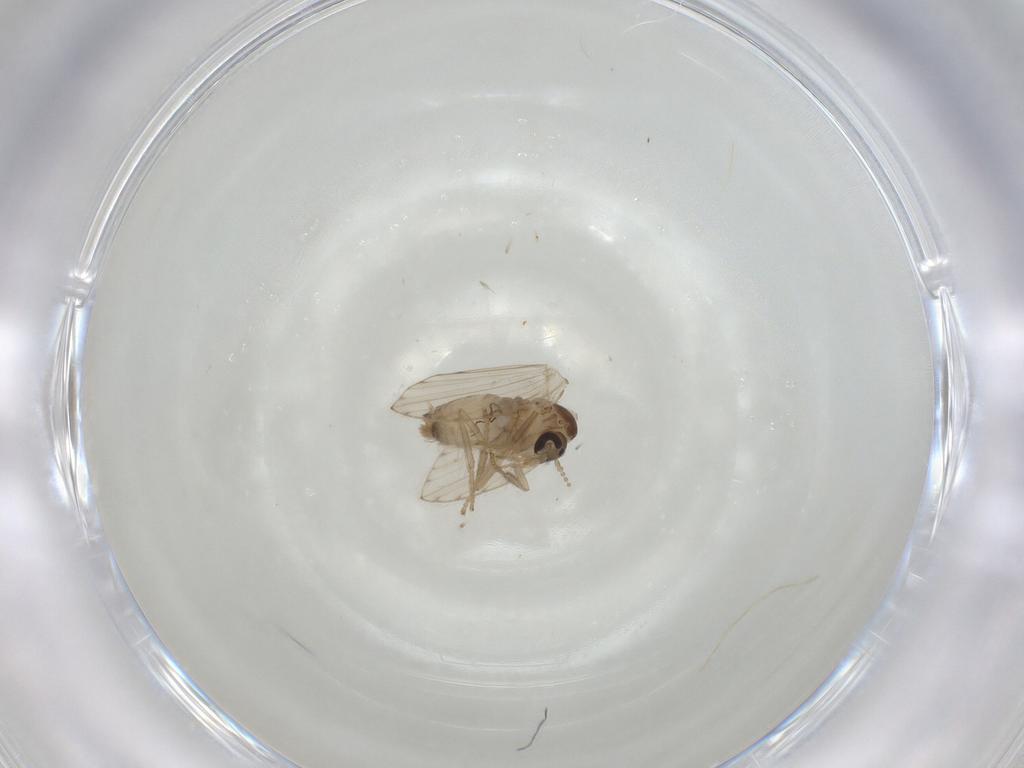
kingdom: Animalia
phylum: Arthropoda
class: Insecta
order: Diptera
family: Psychodidae
